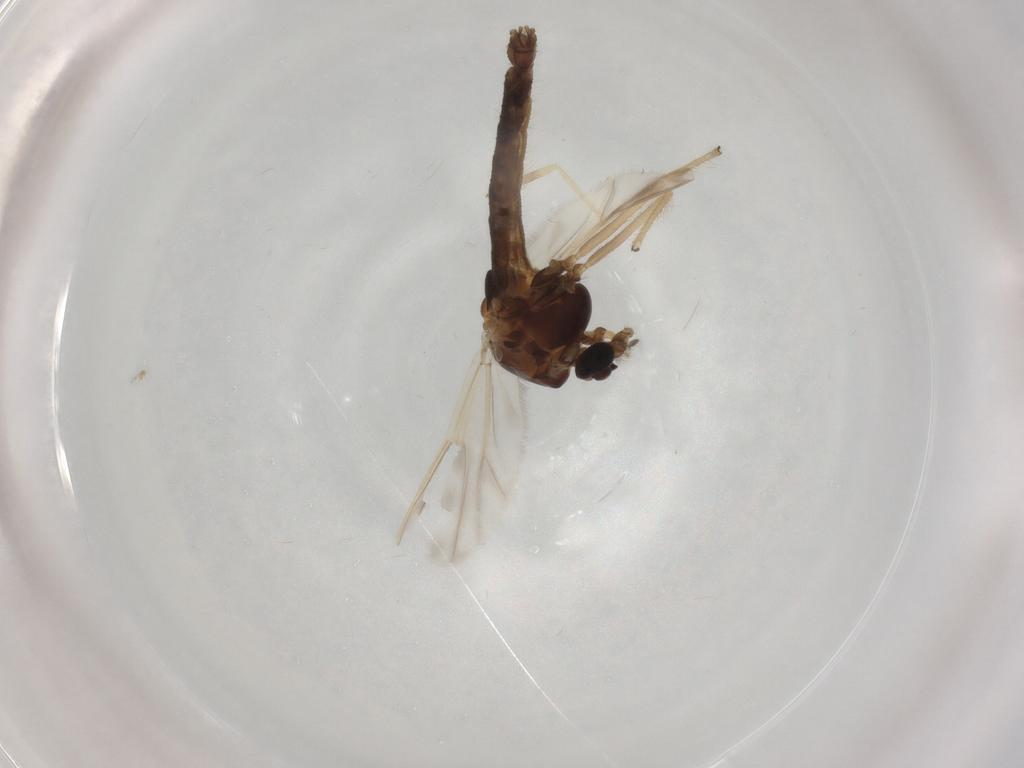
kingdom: Animalia
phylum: Arthropoda
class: Insecta
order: Diptera
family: Chironomidae
